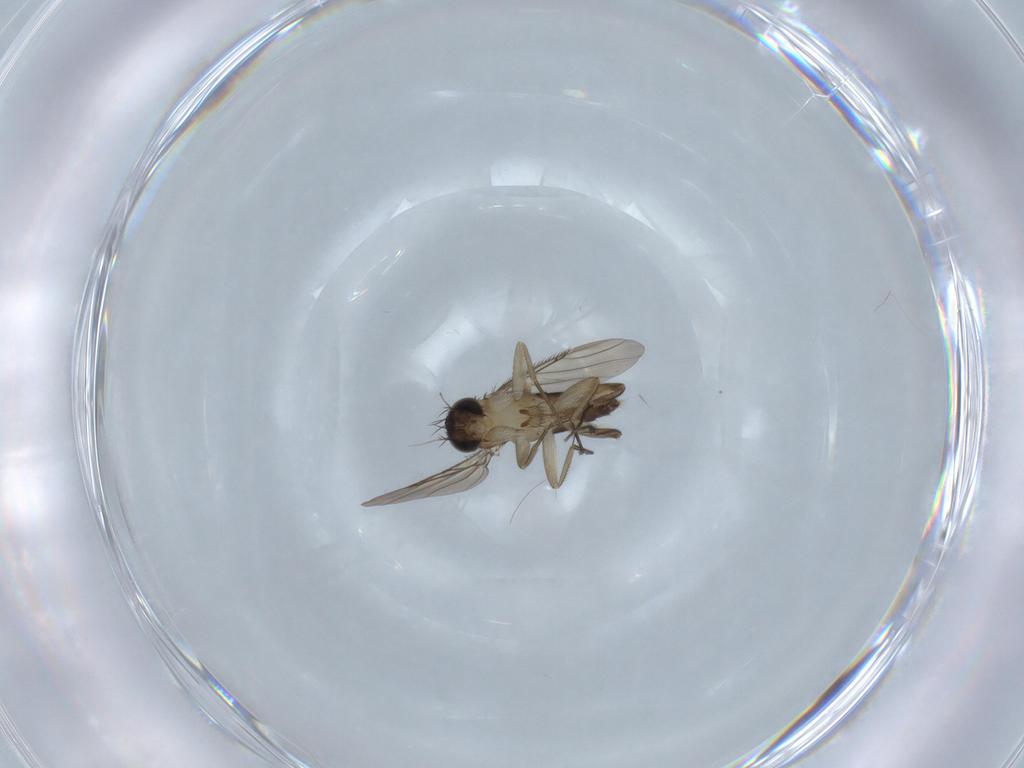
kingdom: Animalia
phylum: Arthropoda
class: Insecta
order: Diptera
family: Phoridae
